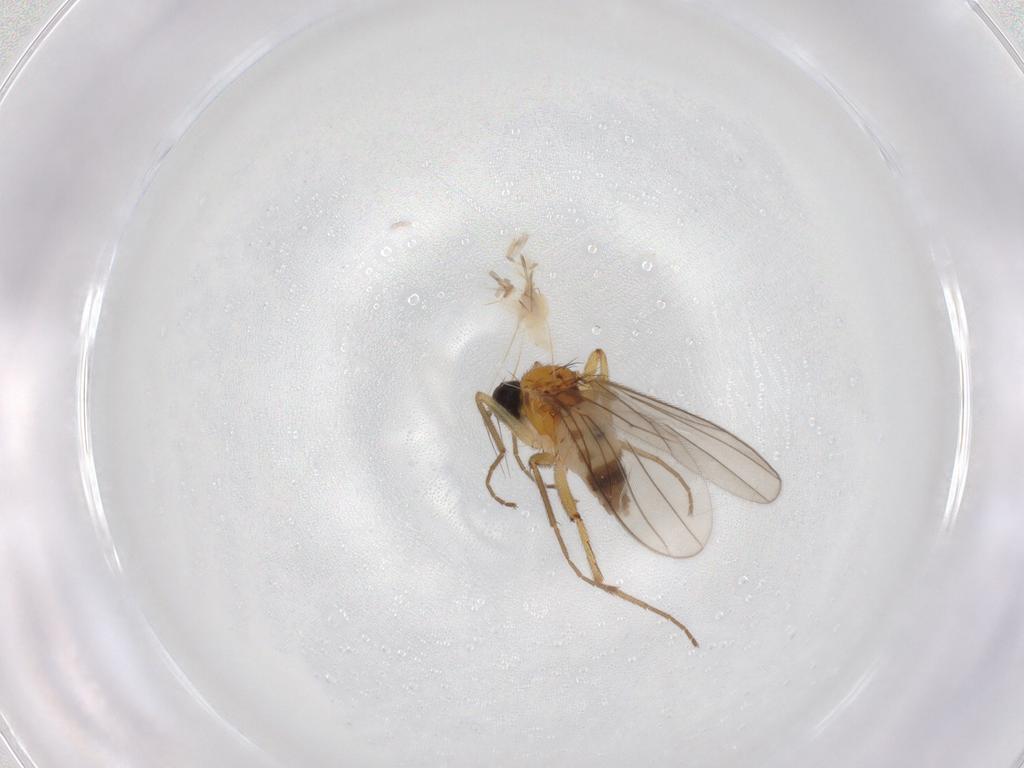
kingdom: Animalia
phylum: Arthropoda
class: Insecta
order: Diptera
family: Hybotidae
